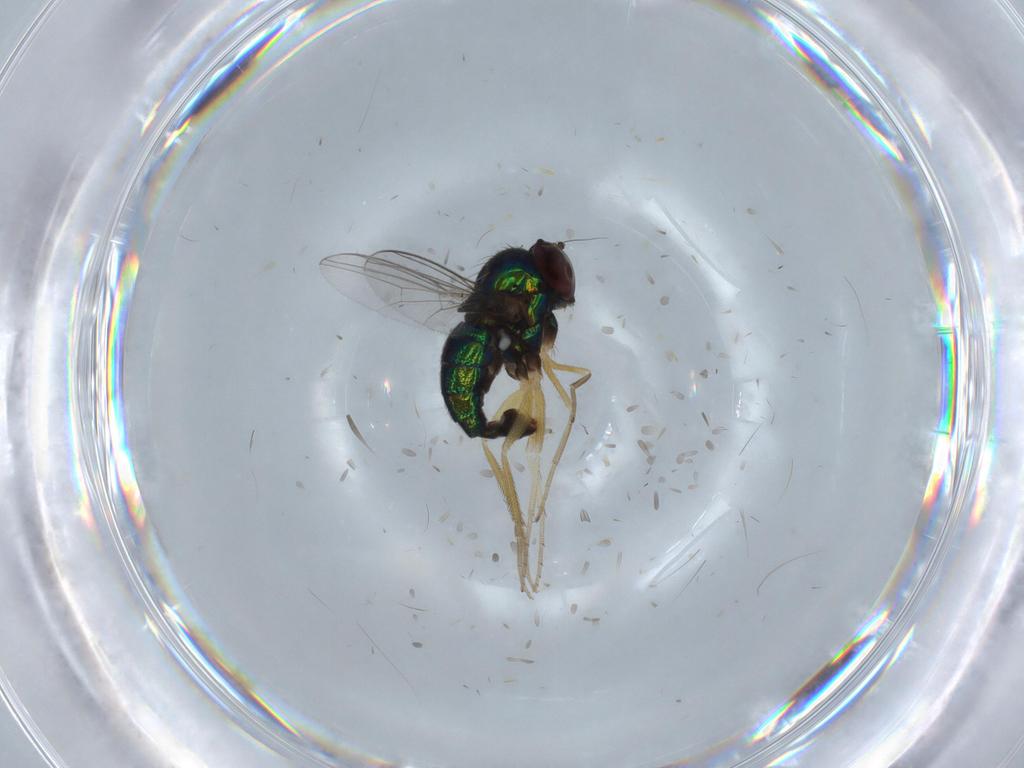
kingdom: Animalia
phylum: Arthropoda
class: Insecta
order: Diptera
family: Dolichopodidae
